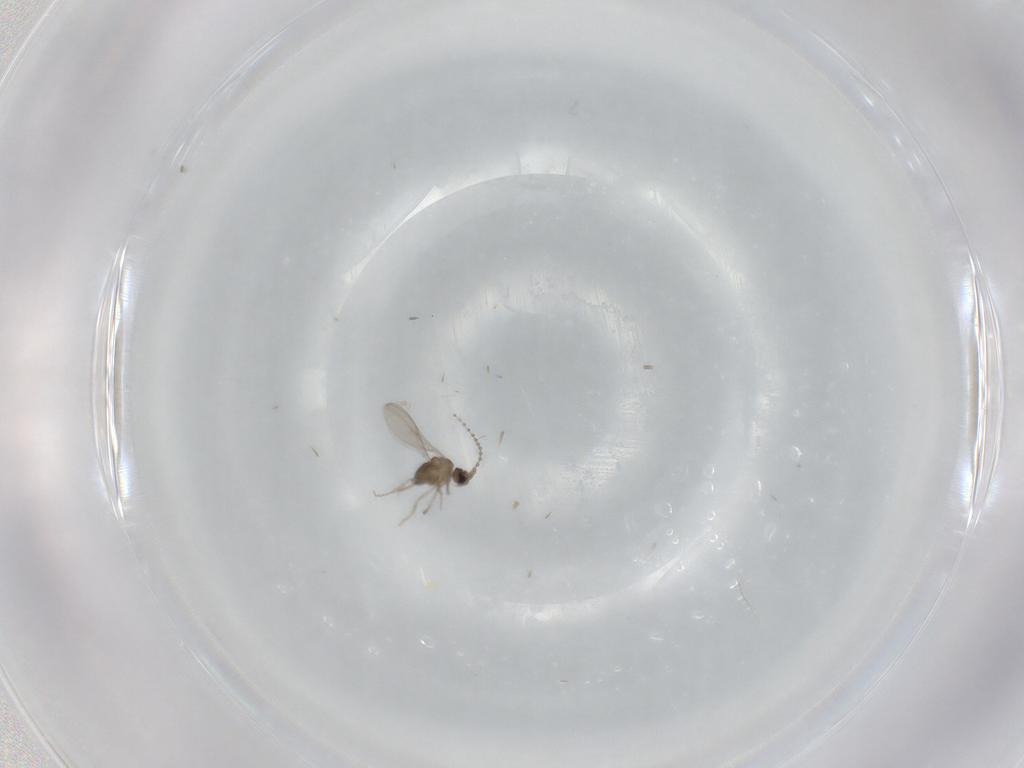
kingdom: Animalia
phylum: Arthropoda
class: Insecta
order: Diptera
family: Cecidomyiidae
